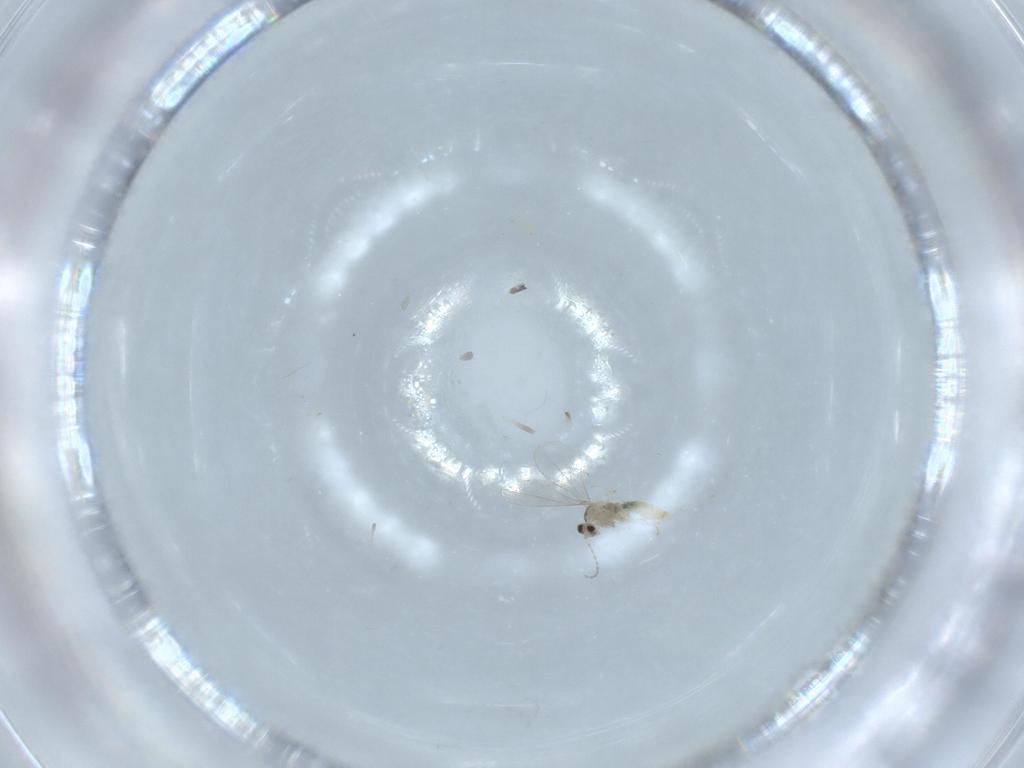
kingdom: Animalia
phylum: Arthropoda
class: Insecta
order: Diptera
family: Cecidomyiidae
